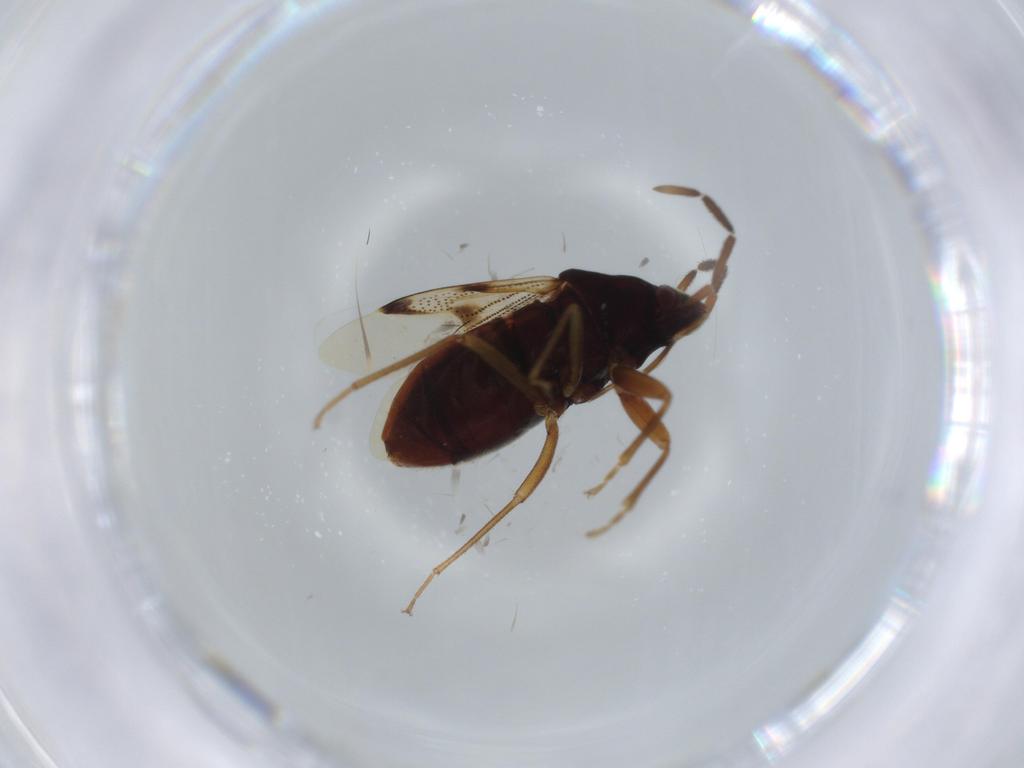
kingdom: Animalia
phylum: Arthropoda
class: Insecta
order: Hemiptera
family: Rhyparochromidae
